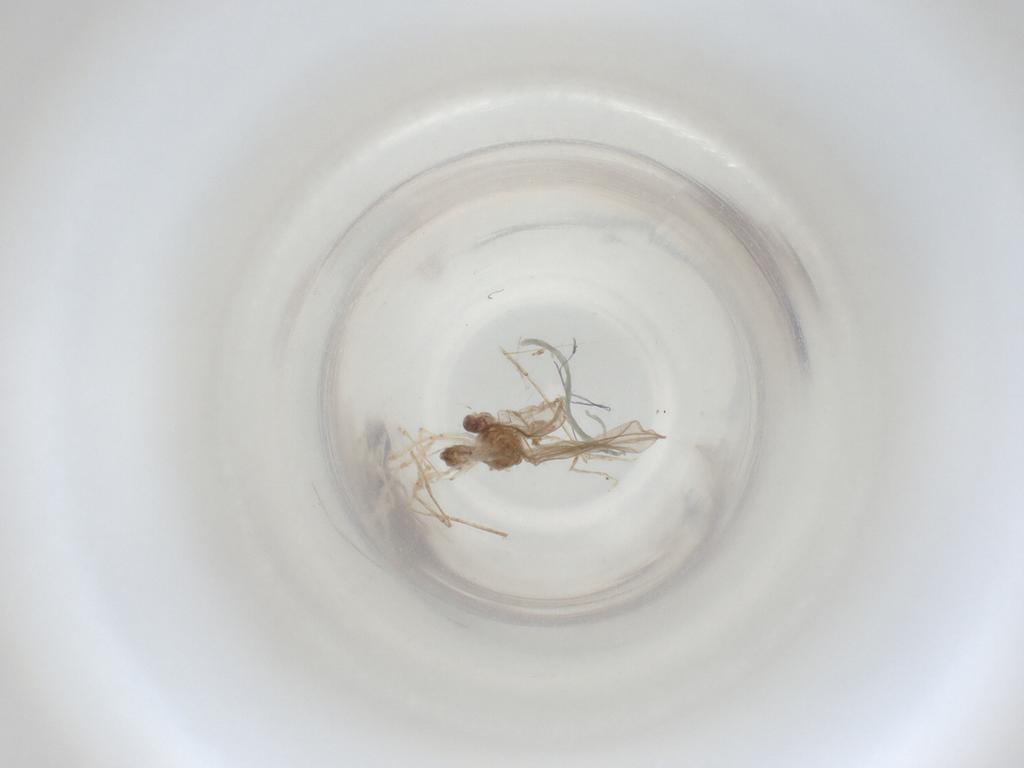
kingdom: Animalia
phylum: Arthropoda
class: Insecta
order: Diptera
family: Cecidomyiidae
